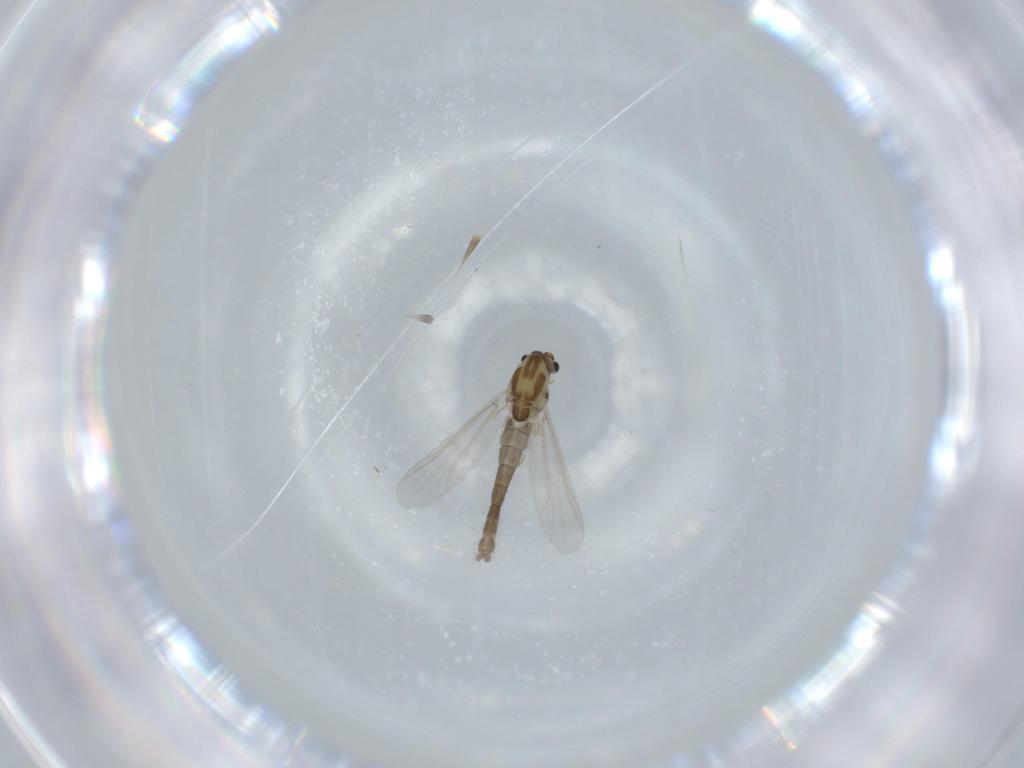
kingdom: Animalia
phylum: Arthropoda
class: Insecta
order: Diptera
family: Chironomidae
